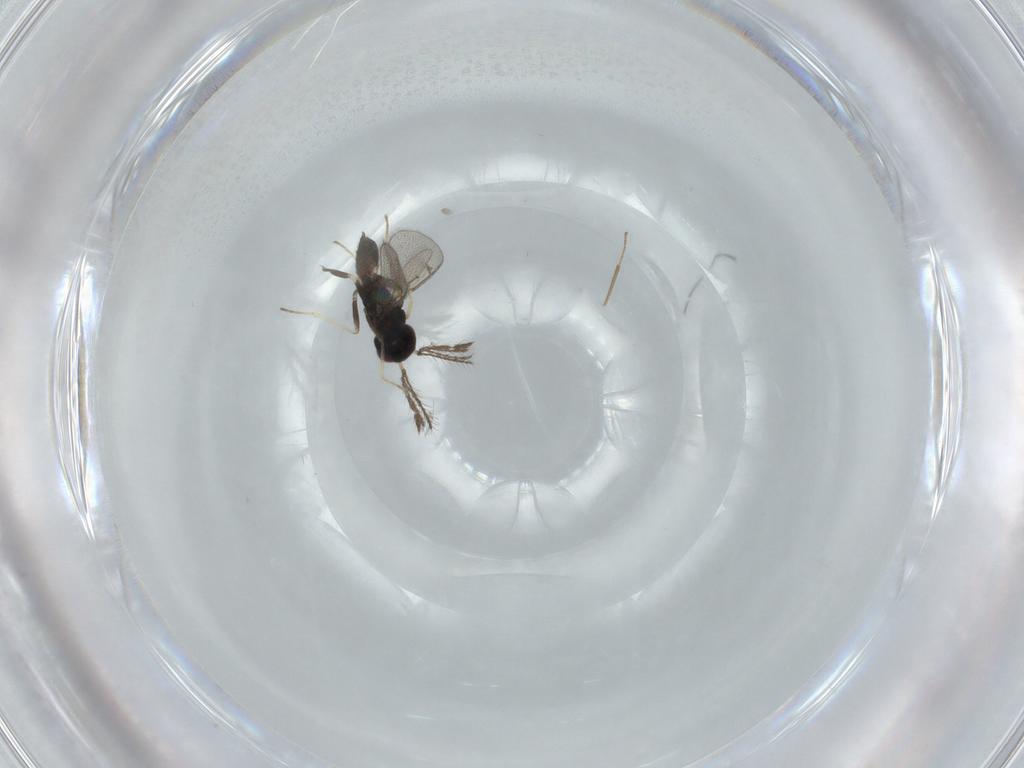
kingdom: Animalia
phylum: Arthropoda
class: Insecta
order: Hymenoptera
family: Eulophidae
